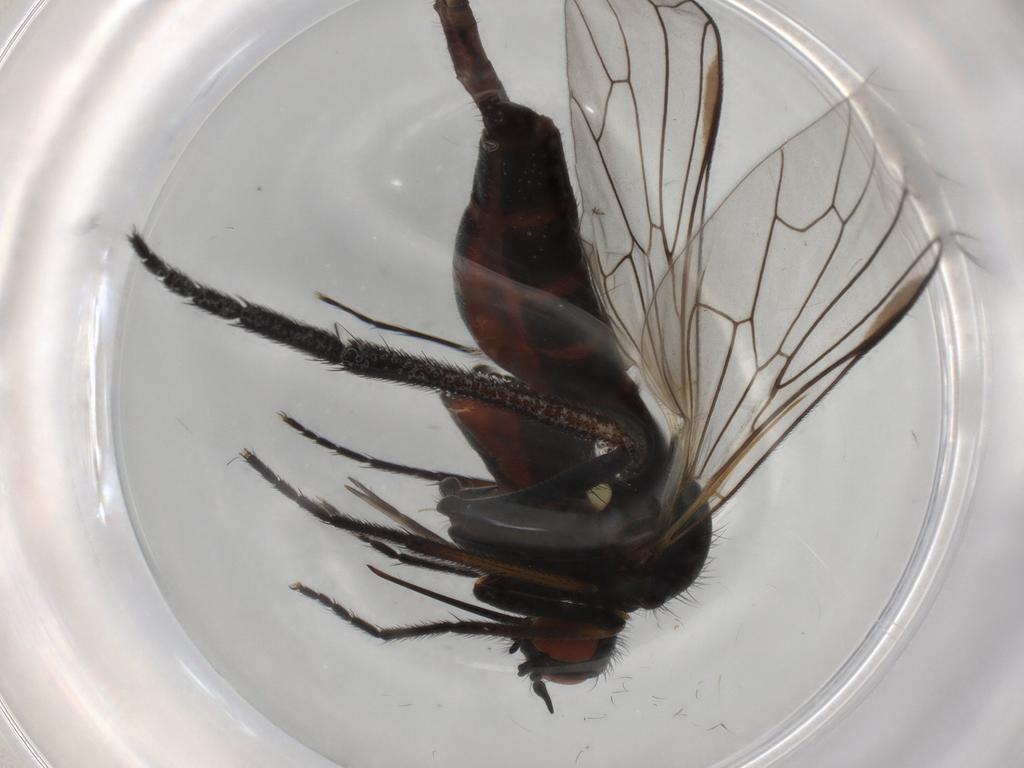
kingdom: Animalia
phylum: Arthropoda
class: Insecta
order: Diptera
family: Empididae
